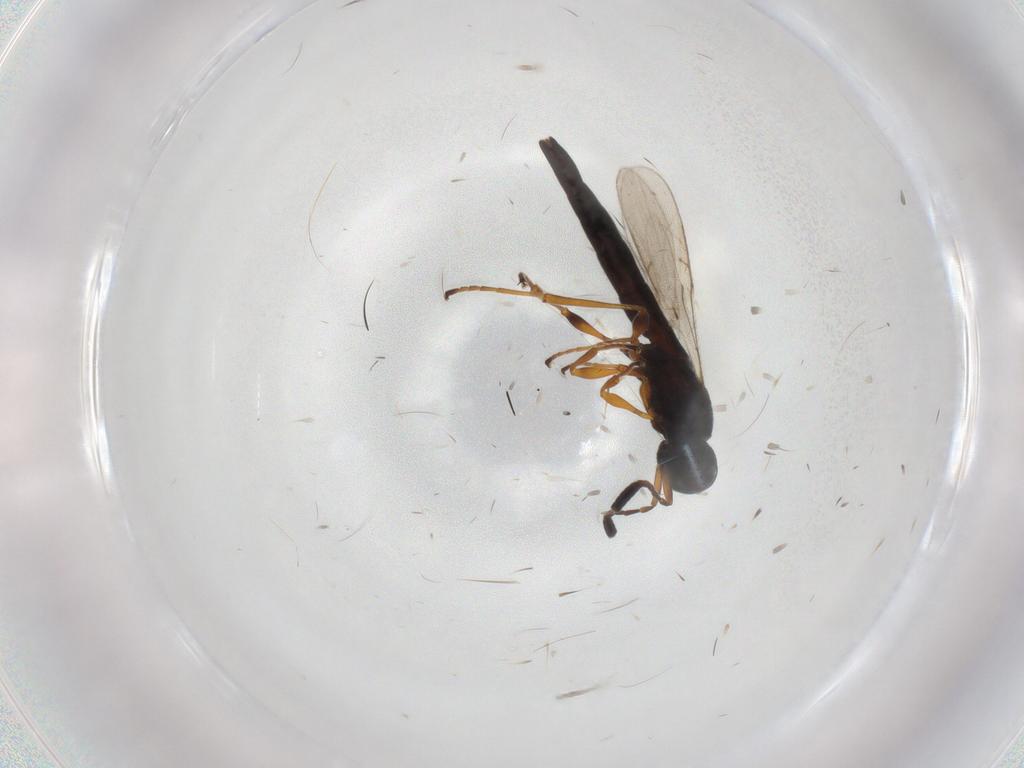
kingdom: Animalia
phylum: Arthropoda
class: Insecta
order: Hymenoptera
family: Scelionidae
